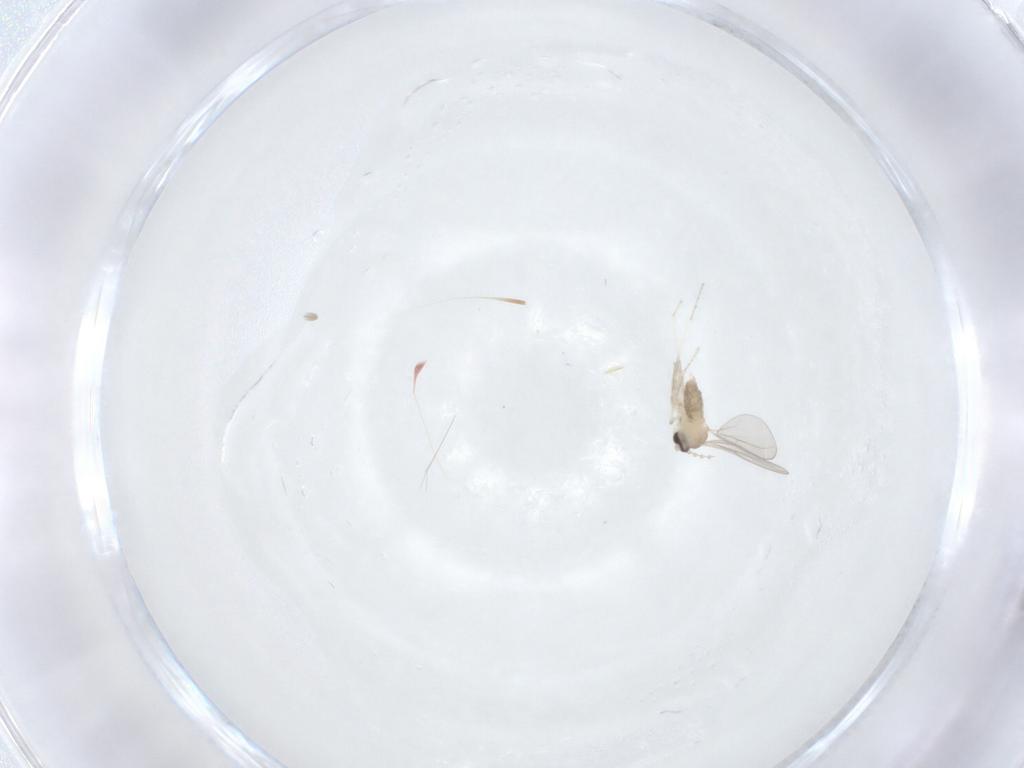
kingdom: Animalia
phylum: Arthropoda
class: Insecta
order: Diptera
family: Cecidomyiidae
